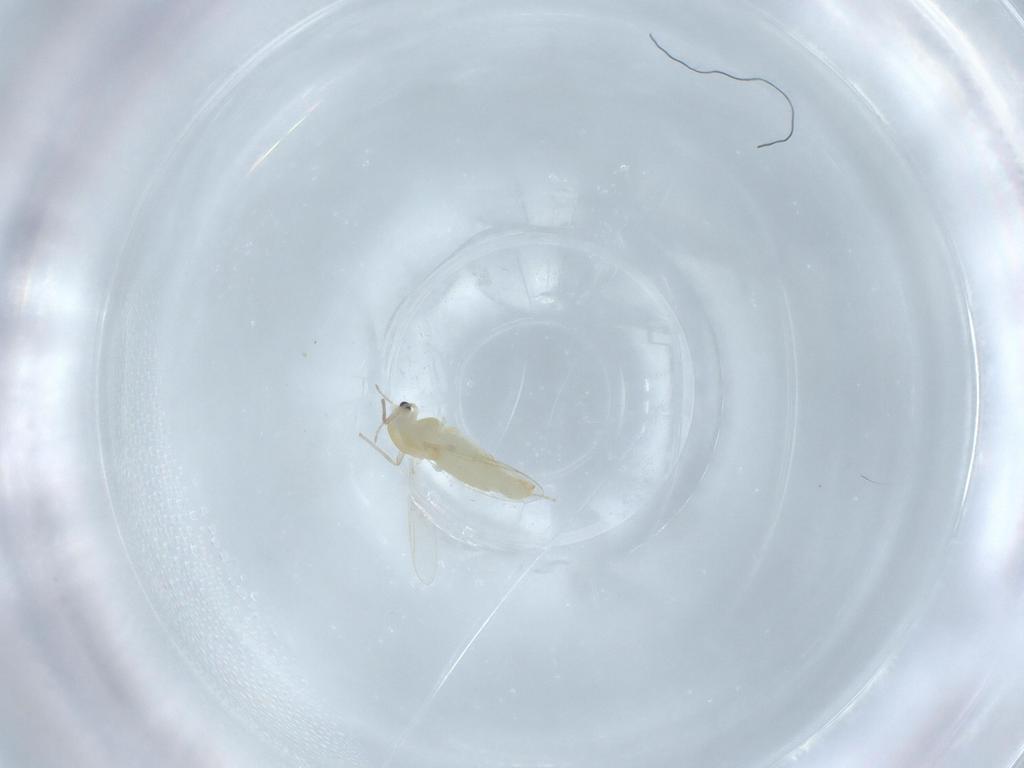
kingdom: Animalia
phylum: Arthropoda
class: Insecta
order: Diptera
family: Chironomidae
